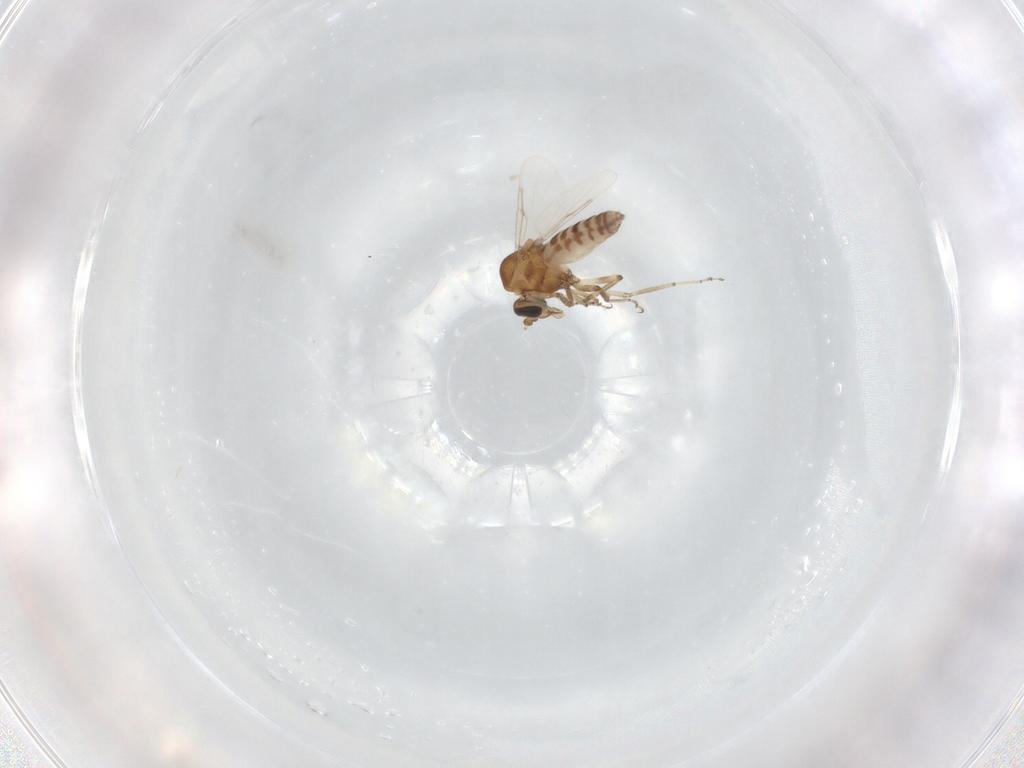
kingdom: Animalia
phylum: Arthropoda
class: Insecta
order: Diptera
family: Ceratopogonidae
